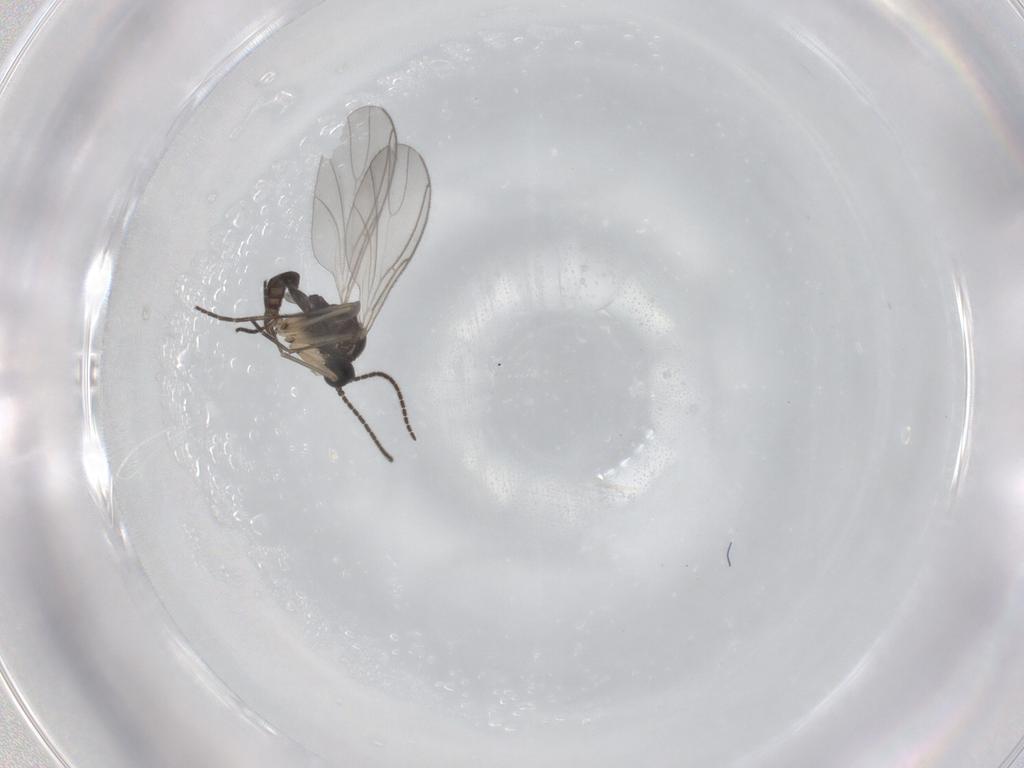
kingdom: Animalia
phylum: Arthropoda
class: Insecta
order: Diptera
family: Sciaridae
